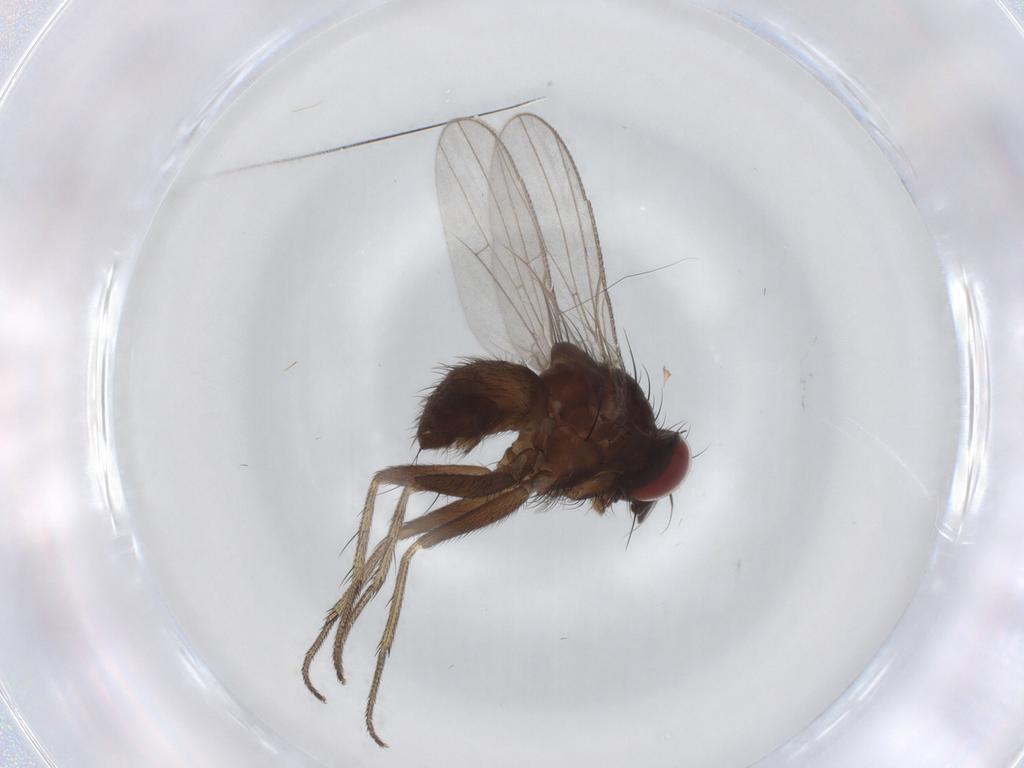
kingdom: Animalia
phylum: Arthropoda
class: Insecta
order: Diptera
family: Muscidae
